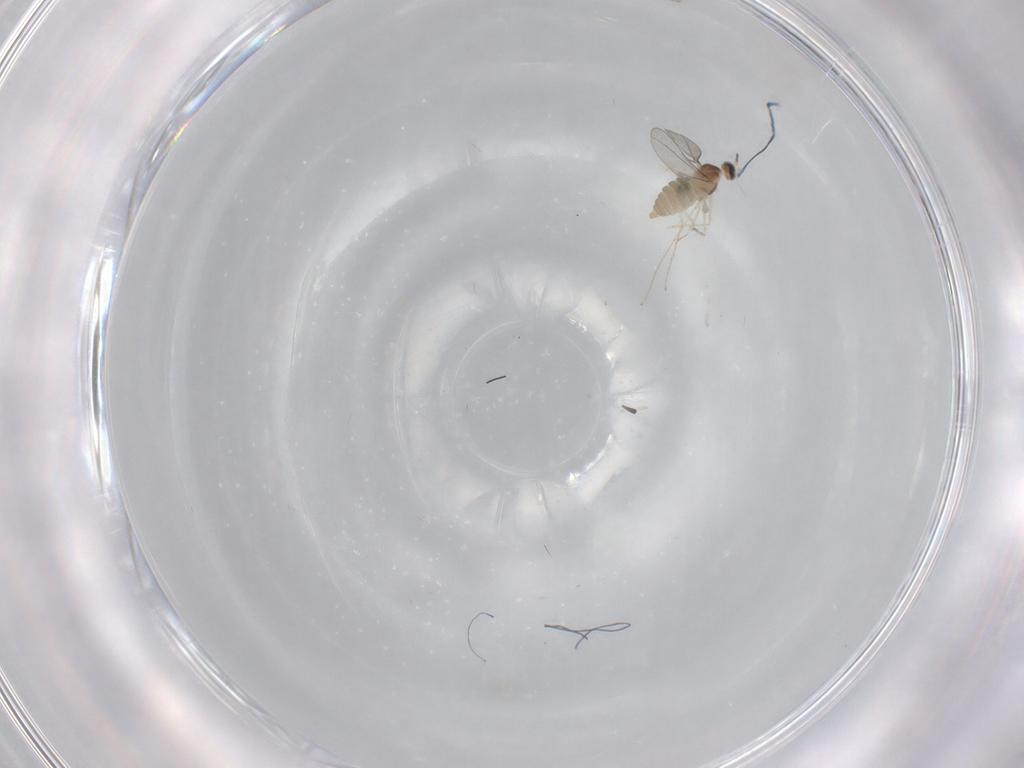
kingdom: Animalia
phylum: Arthropoda
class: Insecta
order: Diptera
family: Cecidomyiidae
